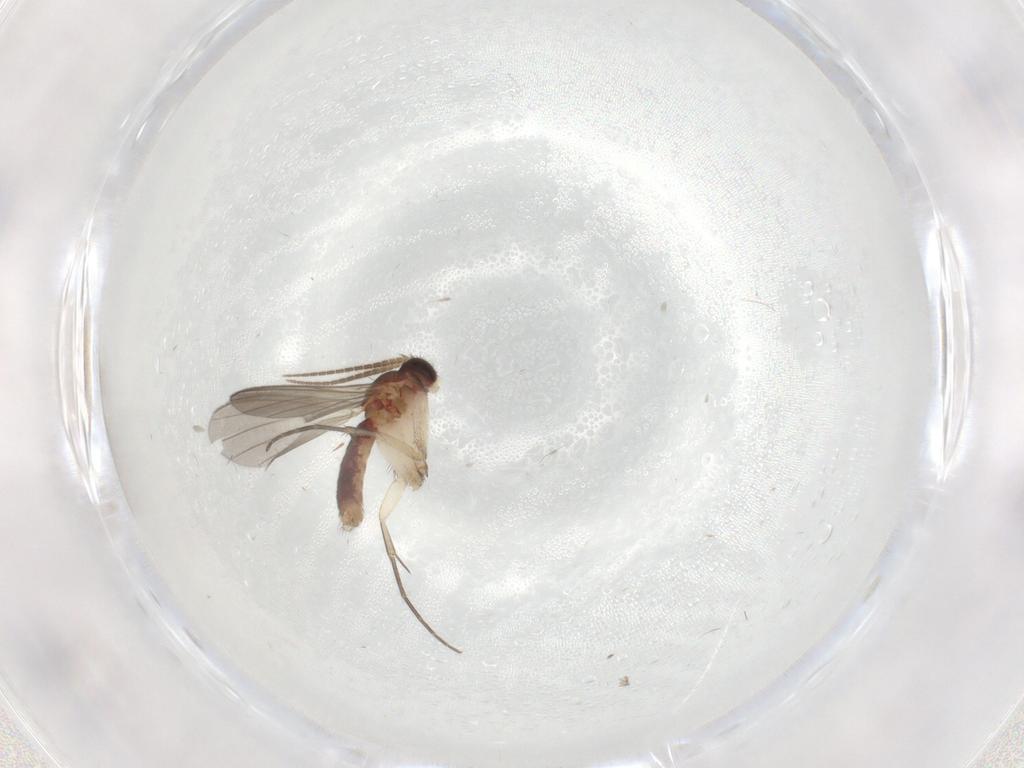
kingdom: Animalia
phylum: Arthropoda
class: Insecta
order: Diptera
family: Mycetophilidae
